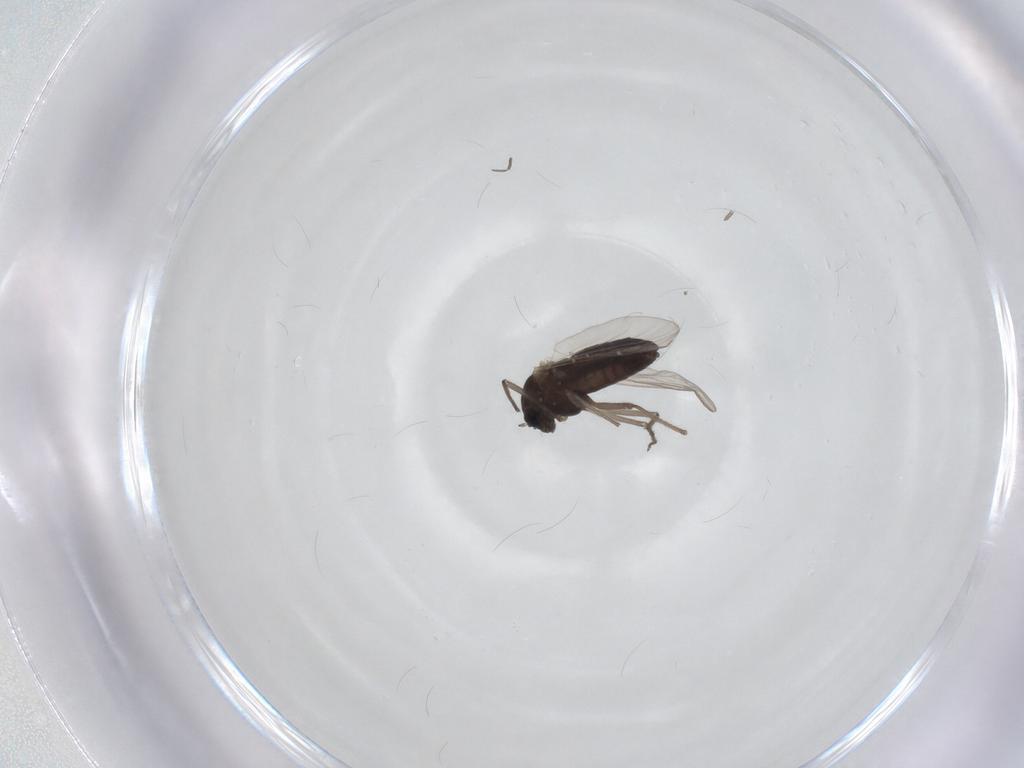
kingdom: Animalia
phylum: Arthropoda
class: Insecta
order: Diptera
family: Chironomidae
